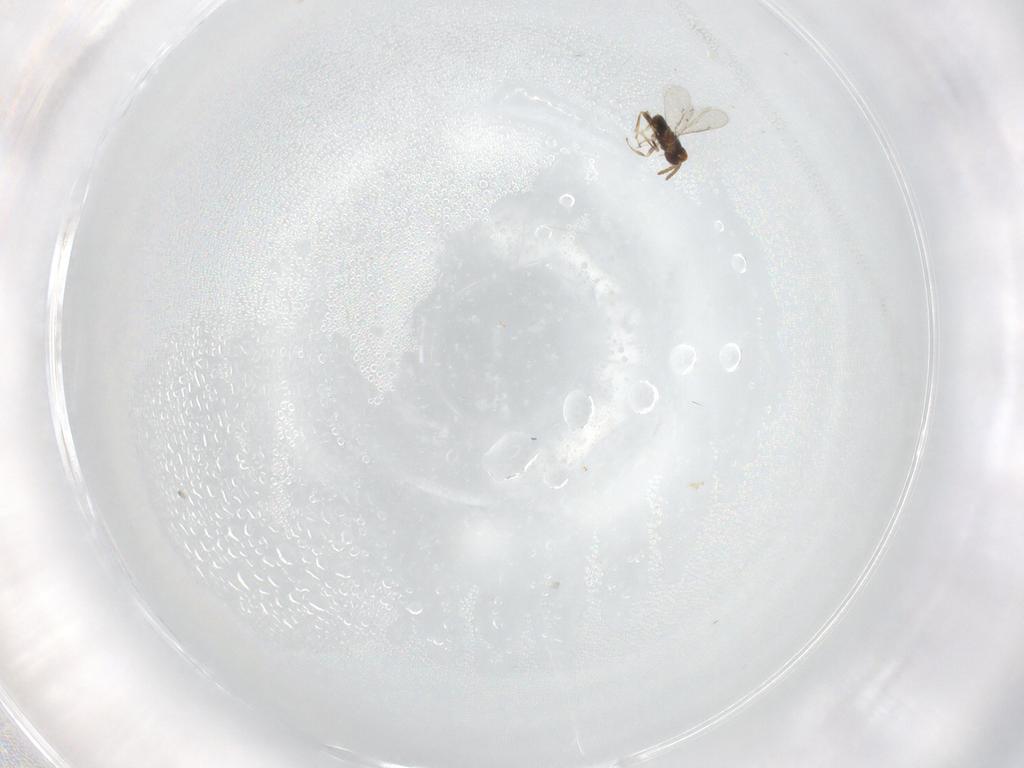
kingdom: Animalia
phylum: Arthropoda
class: Insecta
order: Hymenoptera
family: Aphelinidae
